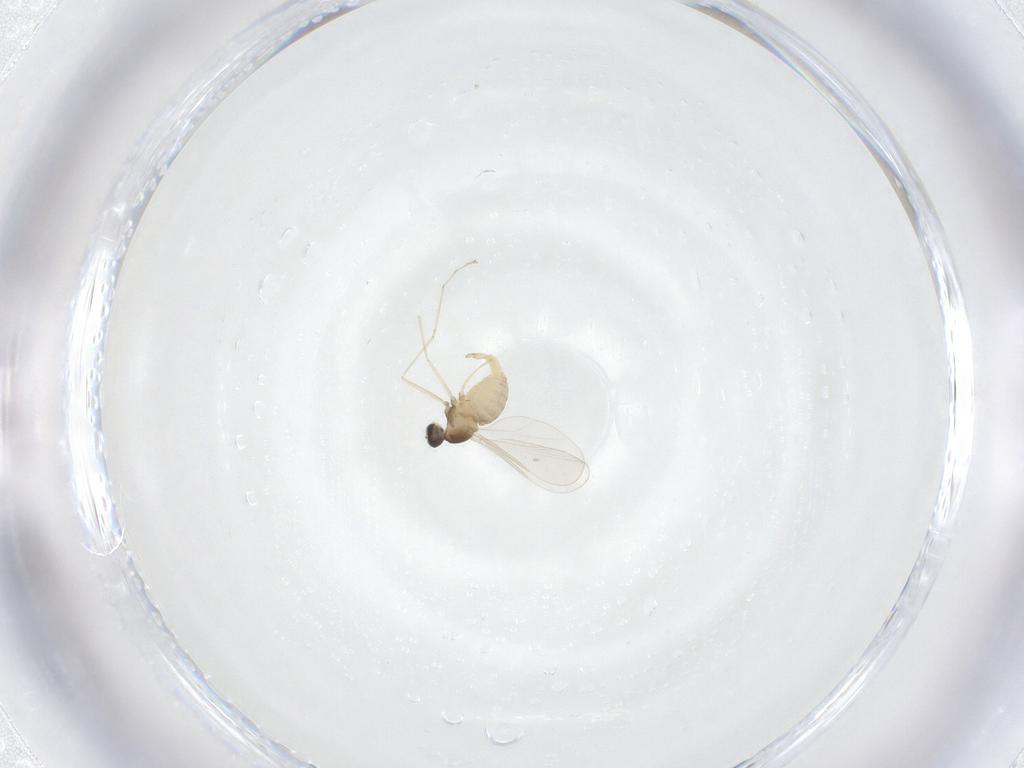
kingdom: Animalia
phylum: Arthropoda
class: Insecta
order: Diptera
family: Cecidomyiidae
